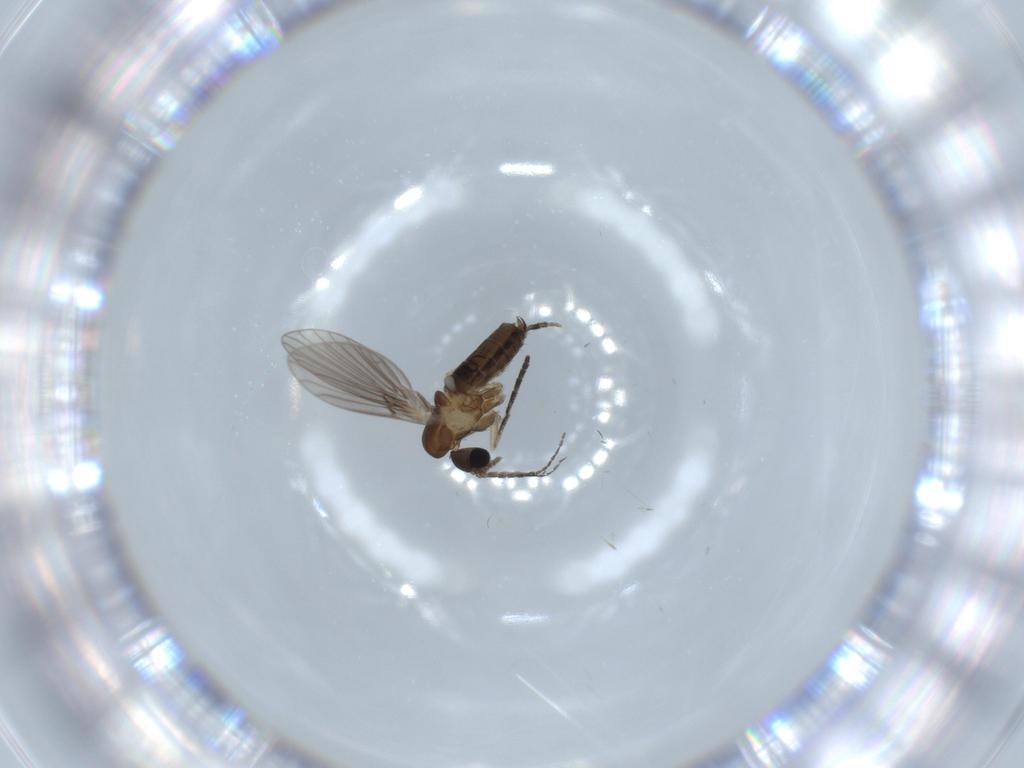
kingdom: Animalia
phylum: Arthropoda
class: Insecta
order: Diptera
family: Psychodidae
